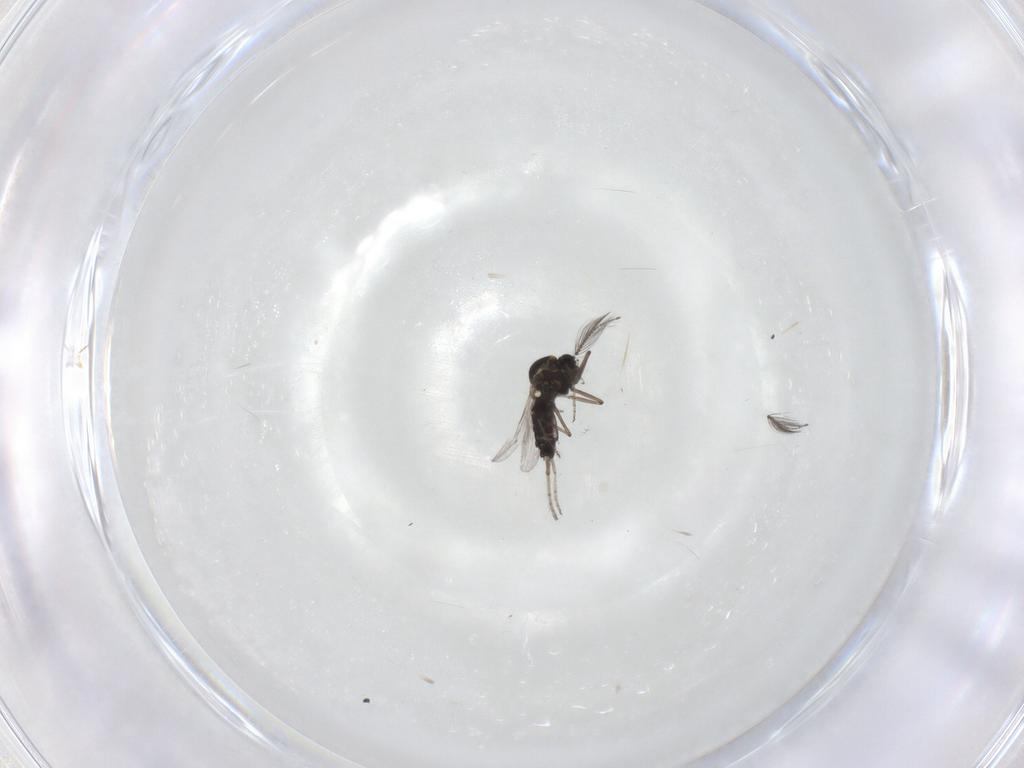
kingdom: Animalia
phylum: Arthropoda
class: Insecta
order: Diptera
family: Ceratopogonidae
